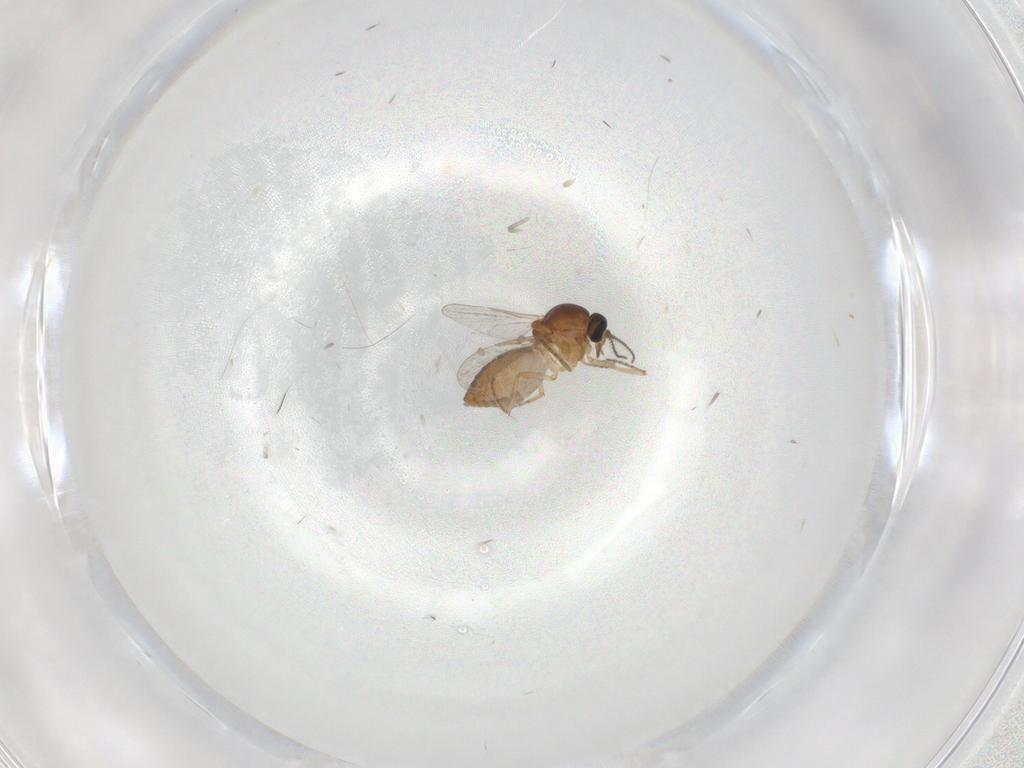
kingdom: Animalia
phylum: Arthropoda
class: Insecta
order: Diptera
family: Ceratopogonidae
